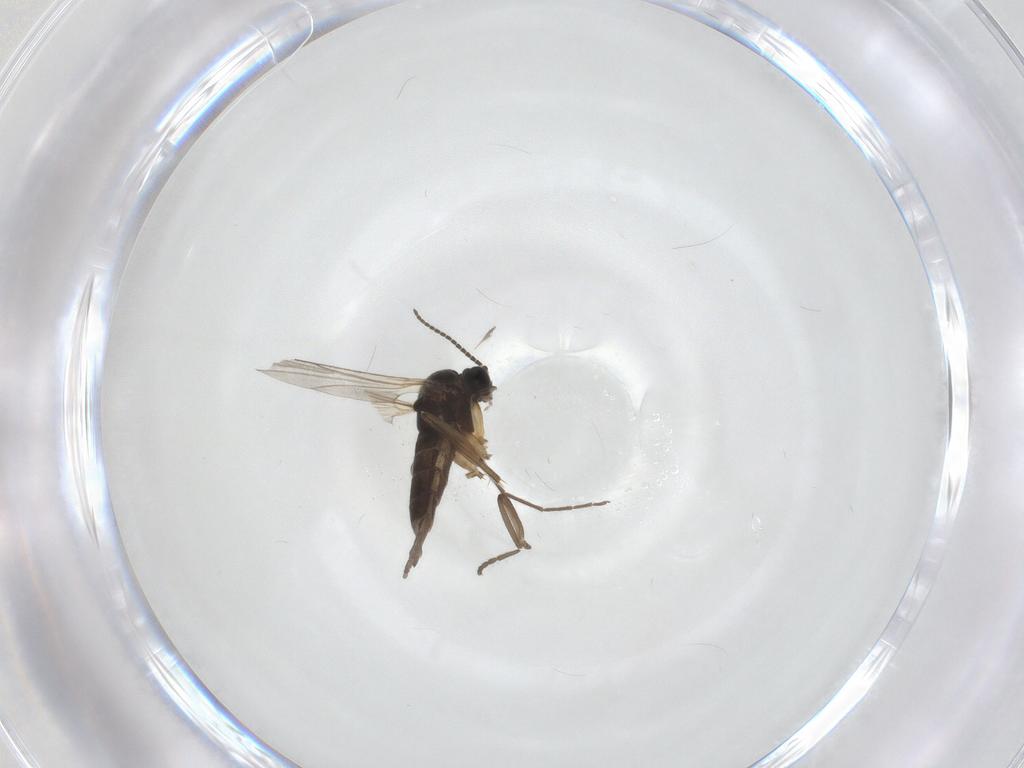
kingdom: Animalia
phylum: Arthropoda
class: Insecta
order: Diptera
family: Sciaridae
